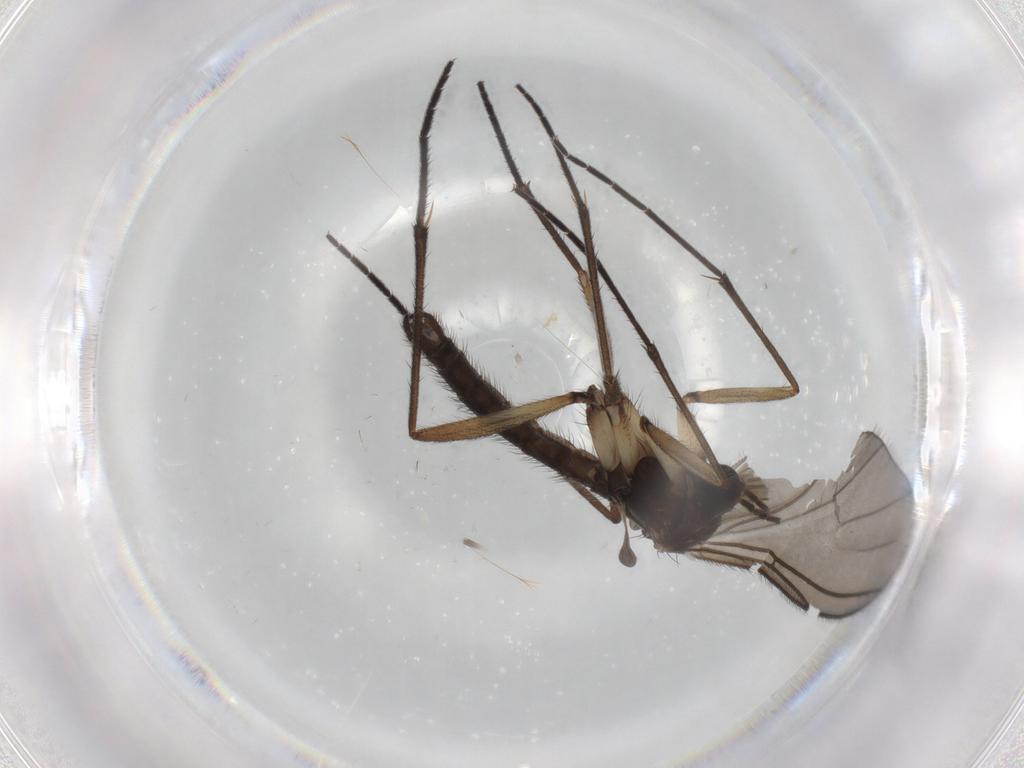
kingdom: Animalia
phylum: Arthropoda
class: Insecta
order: Diptera
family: Sciaridae
